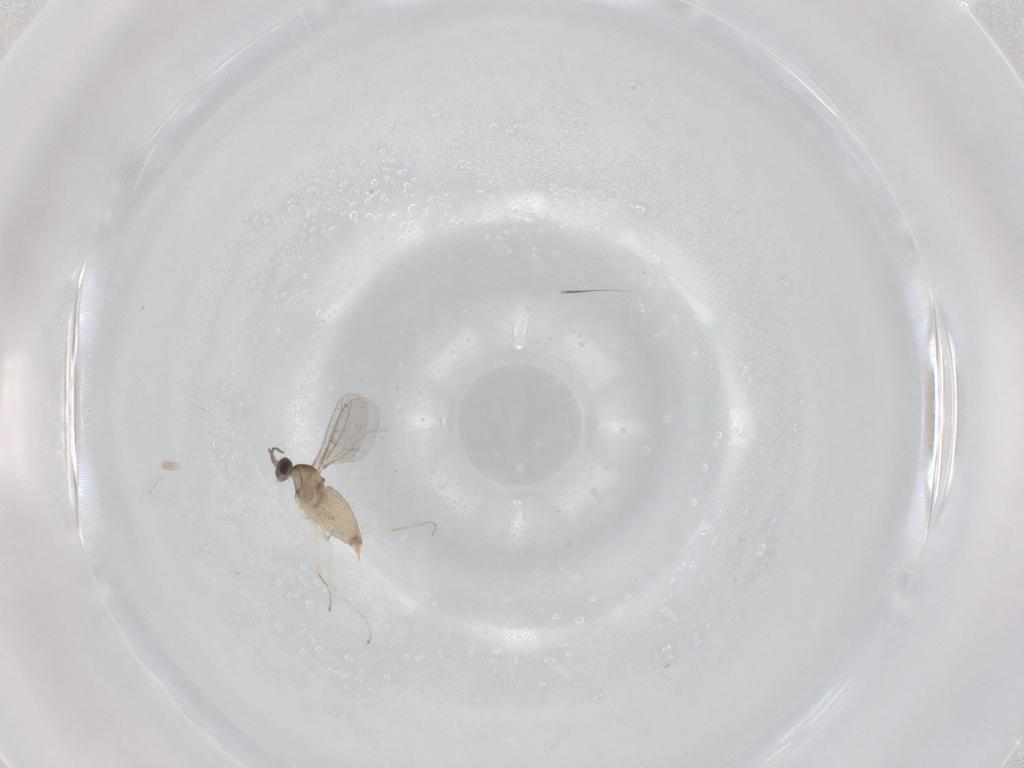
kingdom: Animalia
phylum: Arthropoda
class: Insecta
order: Diptera
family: Cecidomyiidae
